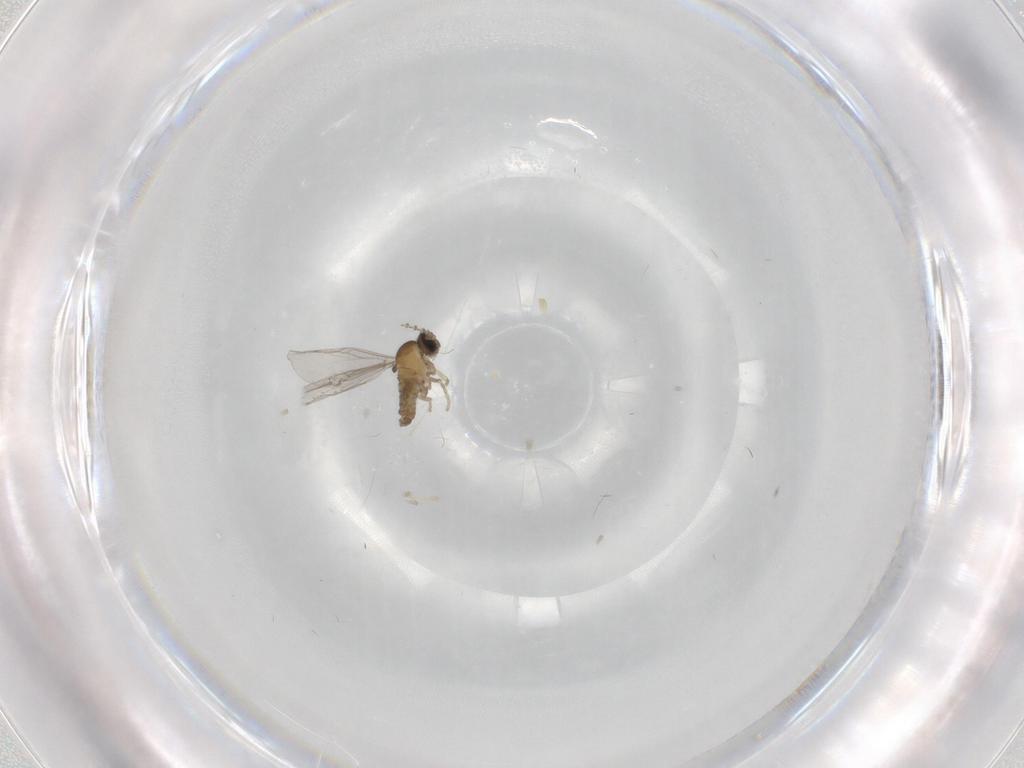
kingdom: Animalia
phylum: Arthropoda
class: Insecta
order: Diptera
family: Cecidomyiidae
